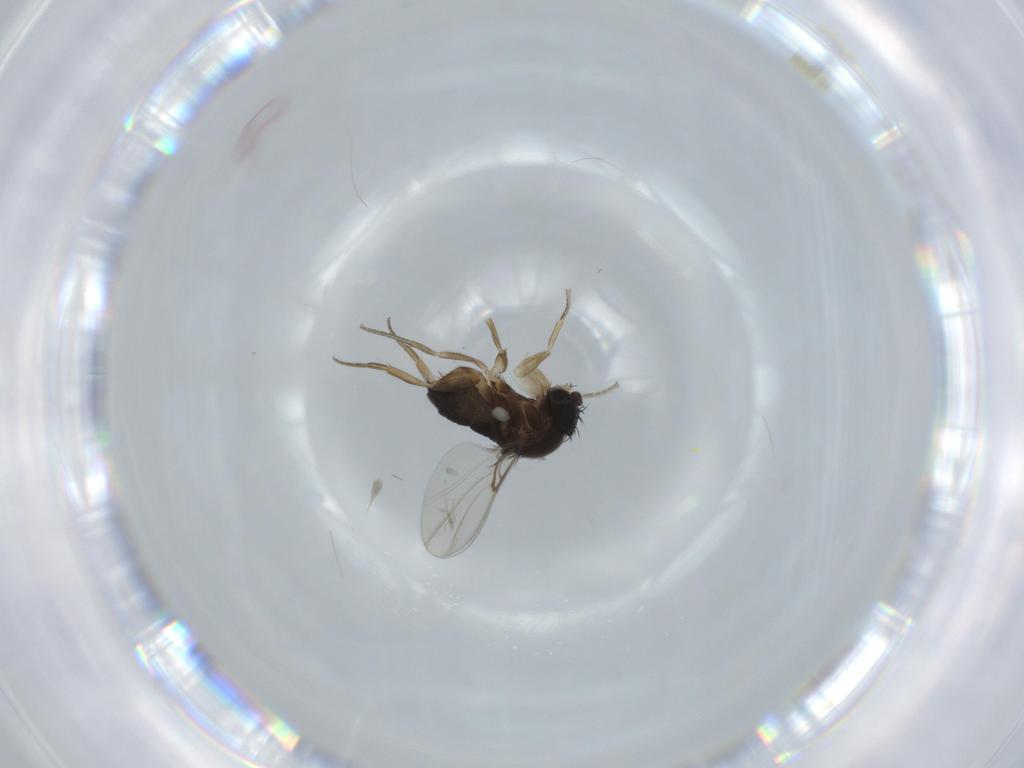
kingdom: Animalia
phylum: Arthropoda
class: Insecta
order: Diptera
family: Phoridae
